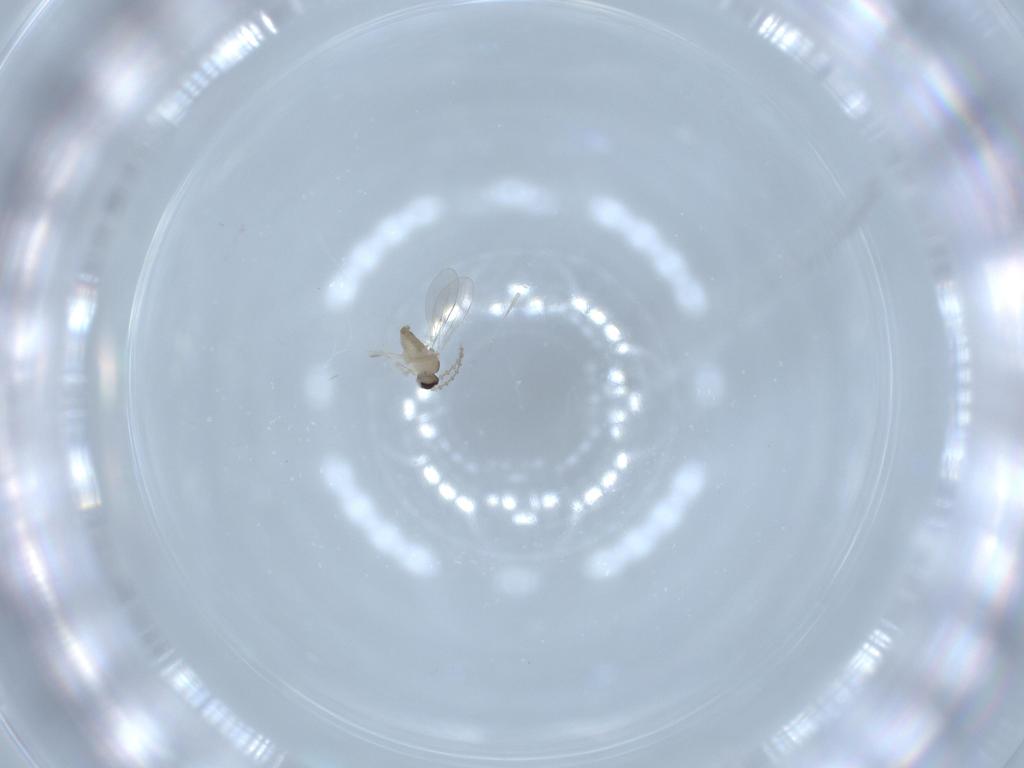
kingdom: Animalia
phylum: Arthropoda
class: Insecta
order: Diptera
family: Cecidomyiidae
